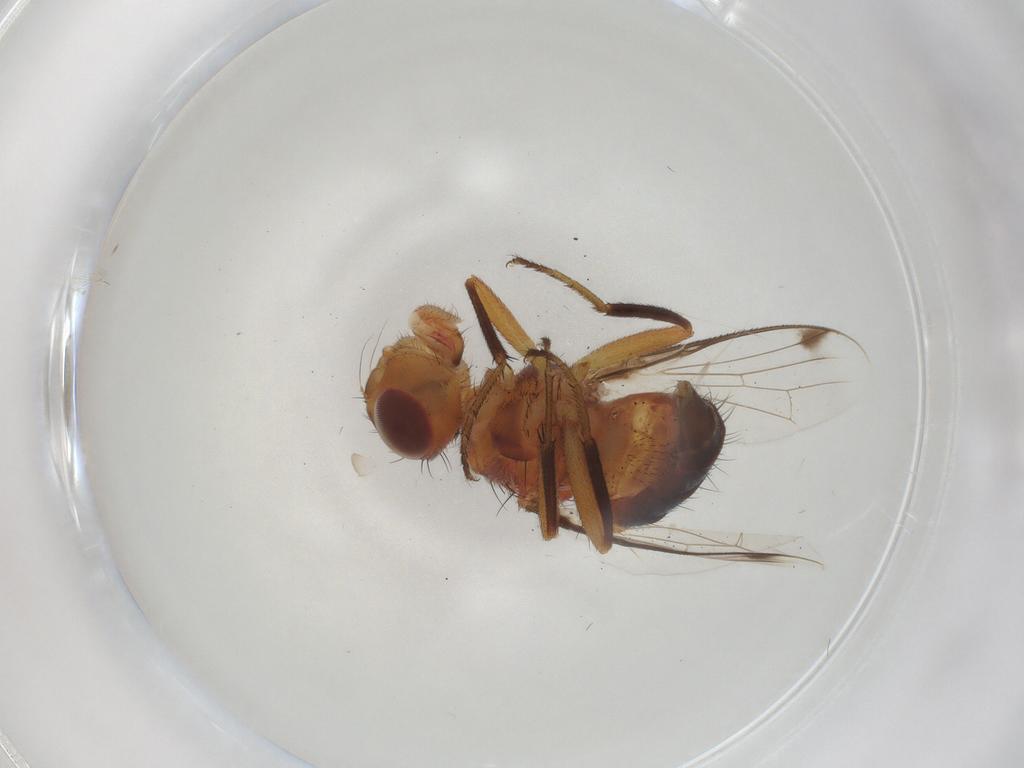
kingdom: Animalia
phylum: Arthropoda
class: Insecta
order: Diptera
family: Richardiidae
